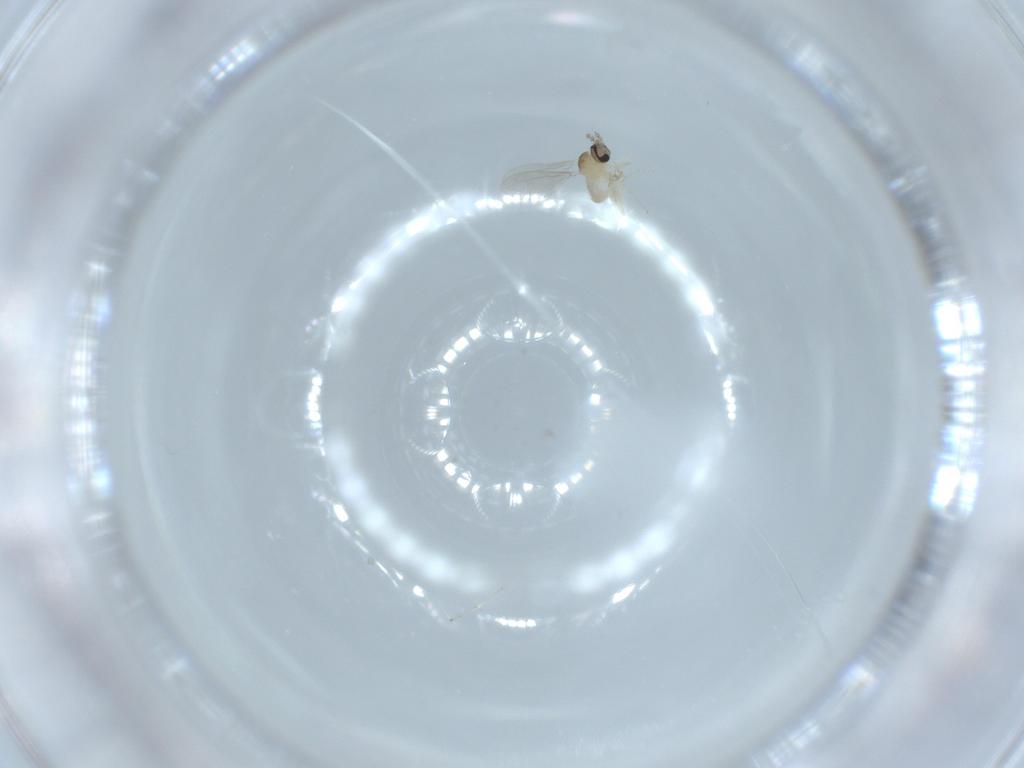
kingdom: Animalia
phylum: Arthropoda
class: Insecta
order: Diptera
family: Cecidomyiidae
